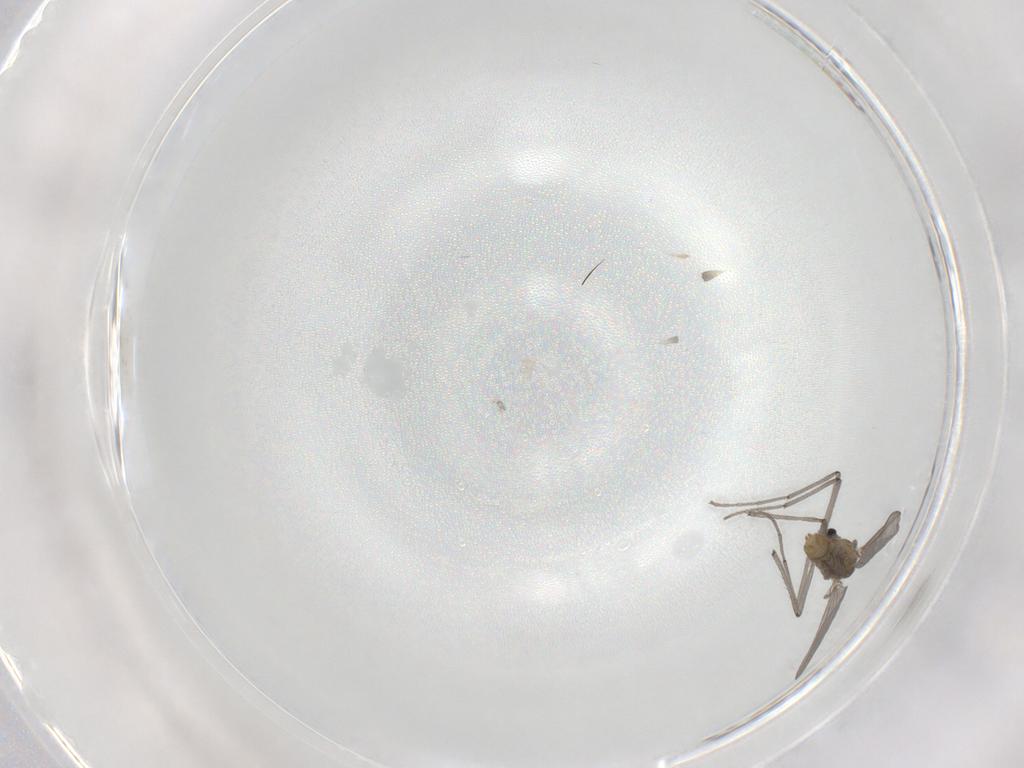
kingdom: Animalia
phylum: Arthropoda
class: Insecta
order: Diptera
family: Chironomidae
